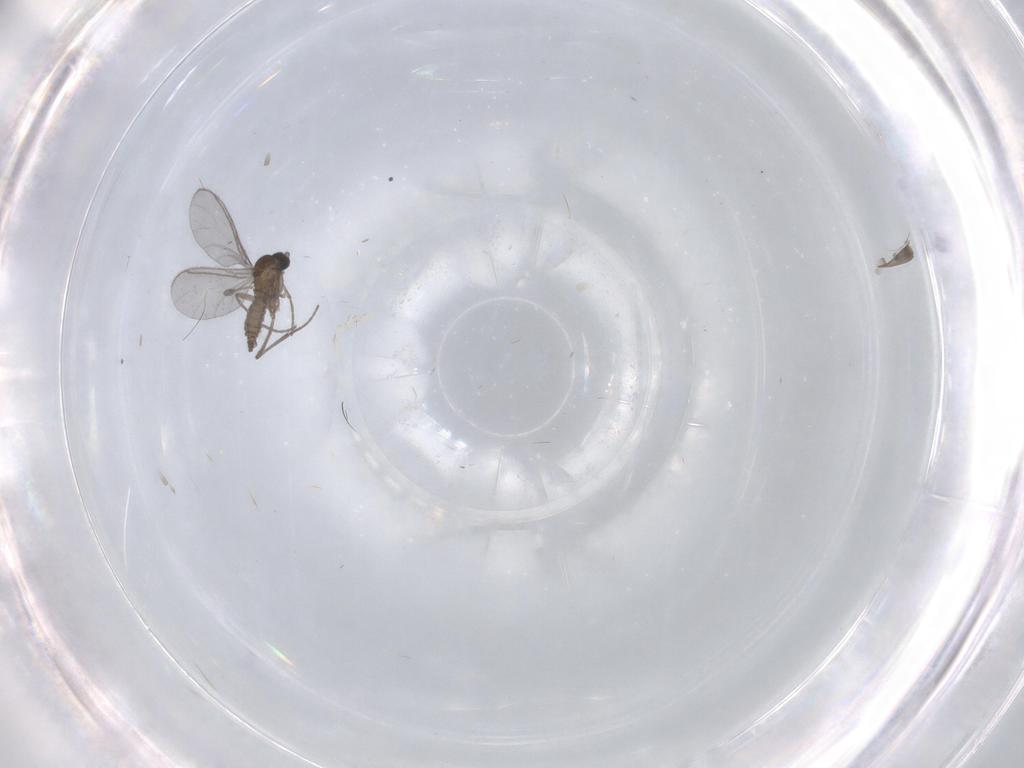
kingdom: Animalia
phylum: Arthropoda
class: Insecta
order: Diptera
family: Sciaridae
